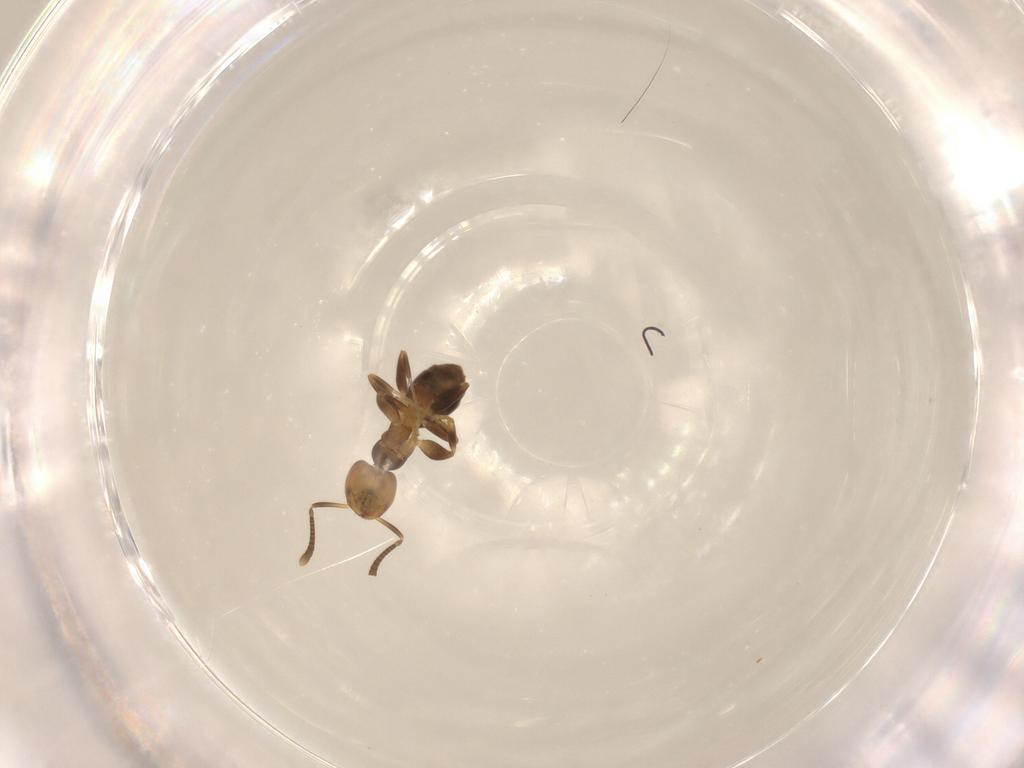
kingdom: Animalia
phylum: Arthropoda
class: Insecta
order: Hymenoptera
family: Formicidae
